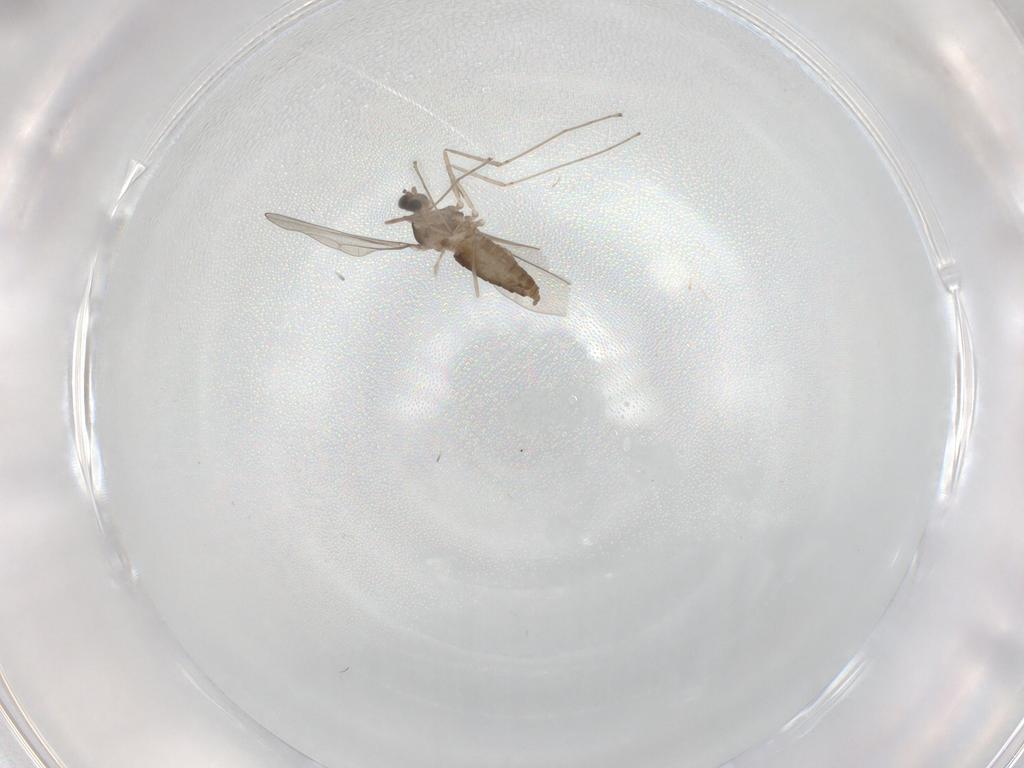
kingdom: Animalia
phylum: Arthropoda
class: Insecta
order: Diptera
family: Cecidomyiidae
